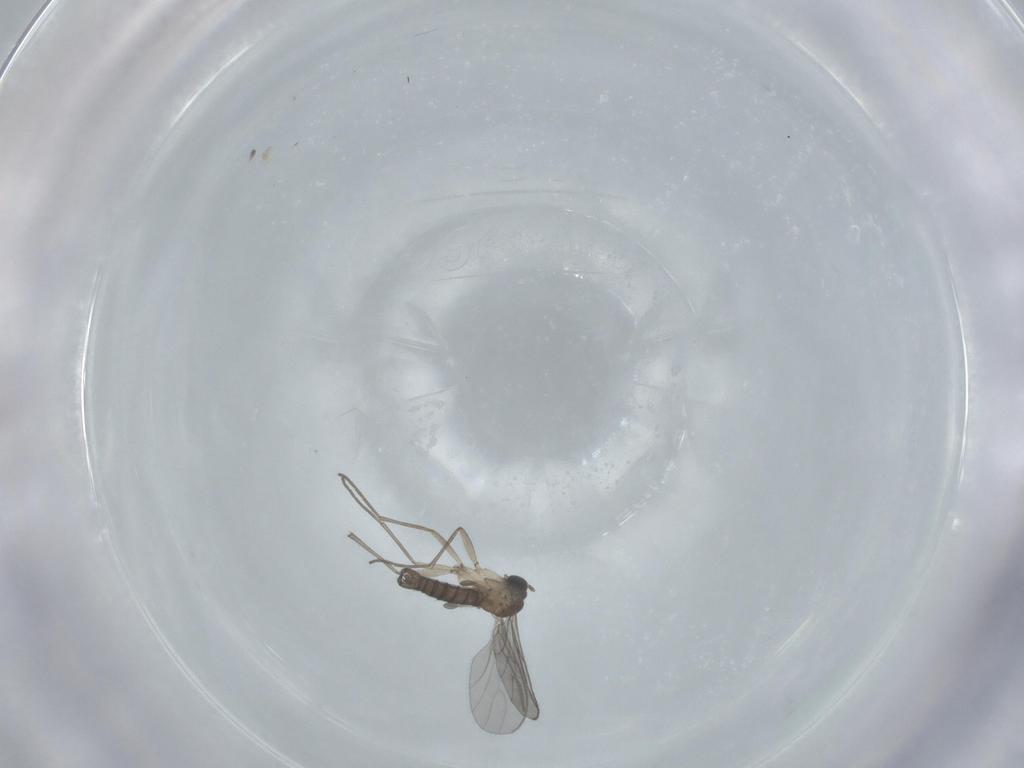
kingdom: Animalia
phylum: Arthropoda
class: Insecta
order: Diptera
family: Sciaridae
